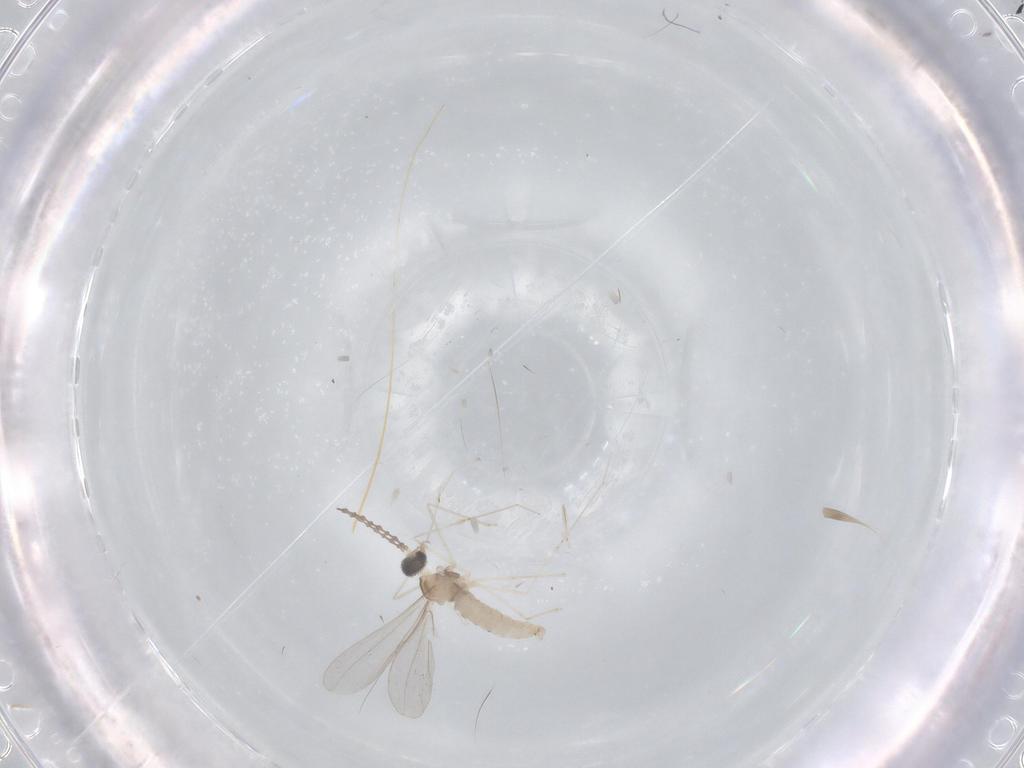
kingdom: Animalia
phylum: Arthropoda
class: Insecta
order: Diptera
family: Cecidomyiidae
